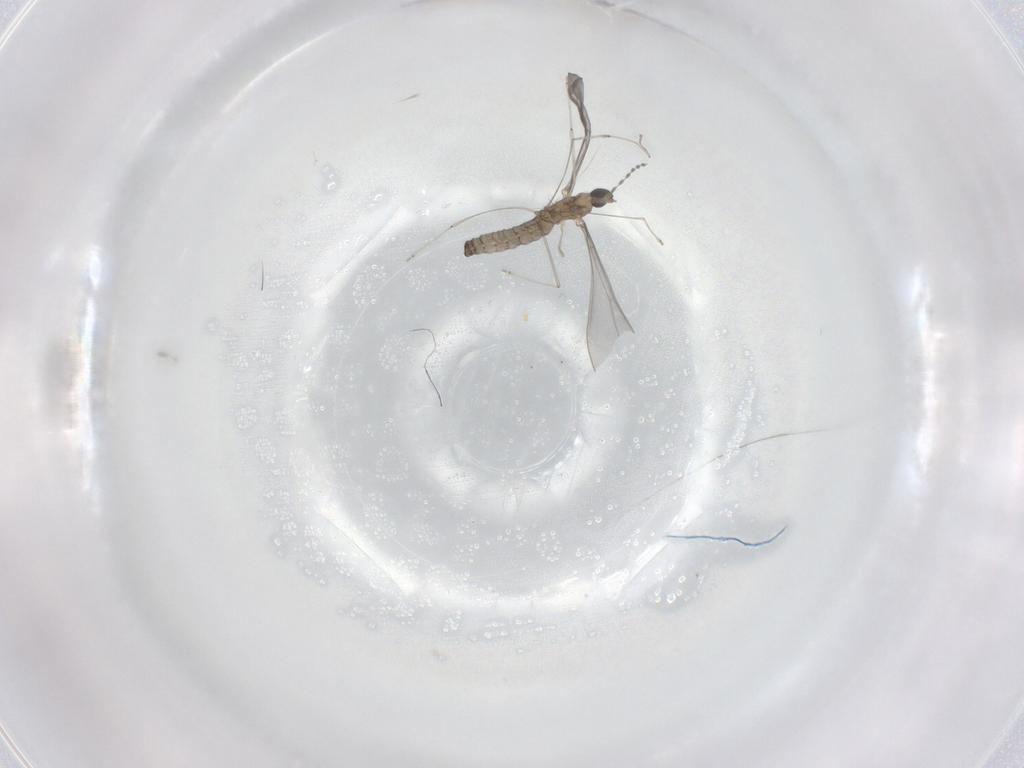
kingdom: Animalia
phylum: Arthropoda
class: Insecta
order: Diptera
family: Cecidomyiidae
